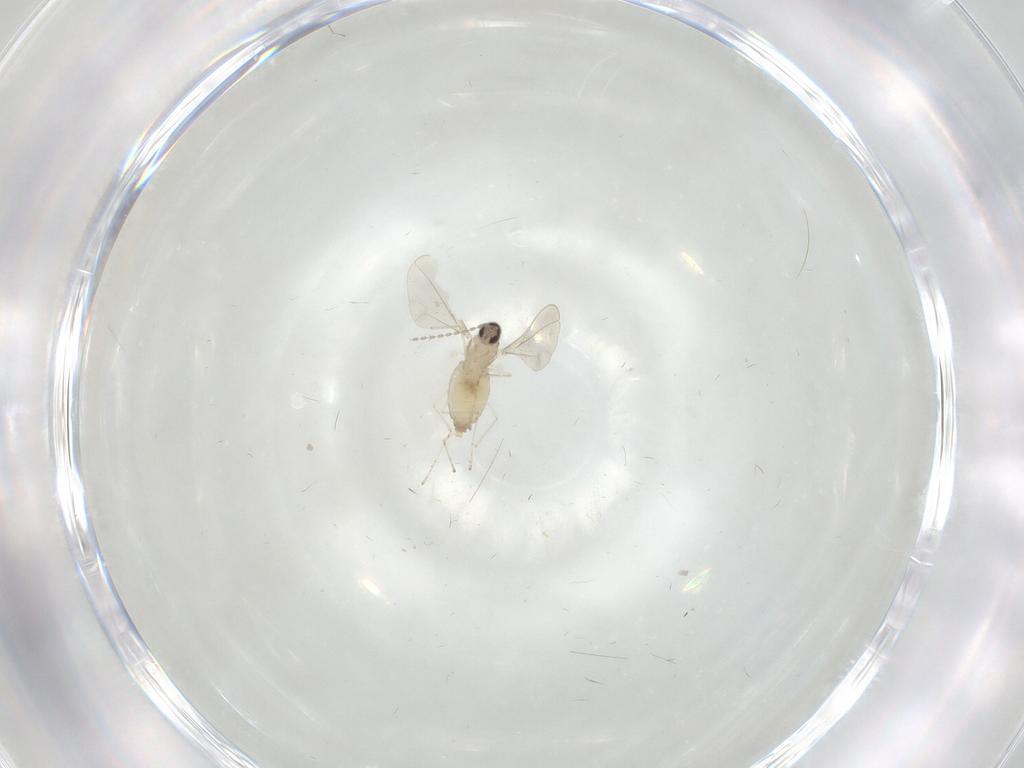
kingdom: Animalia
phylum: Arthropoda
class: Insecta
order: Diptera
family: Cecidomyiidae
